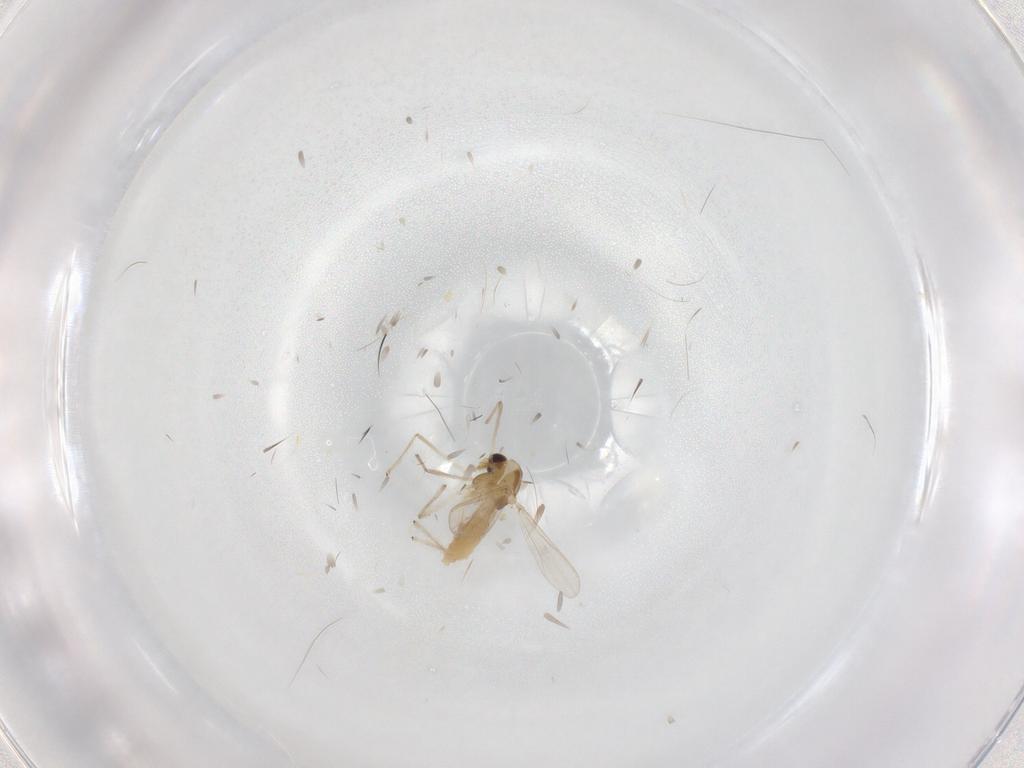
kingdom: Animalia
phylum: Arthropoda
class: Insecta
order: Diptera
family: Chironomidae
